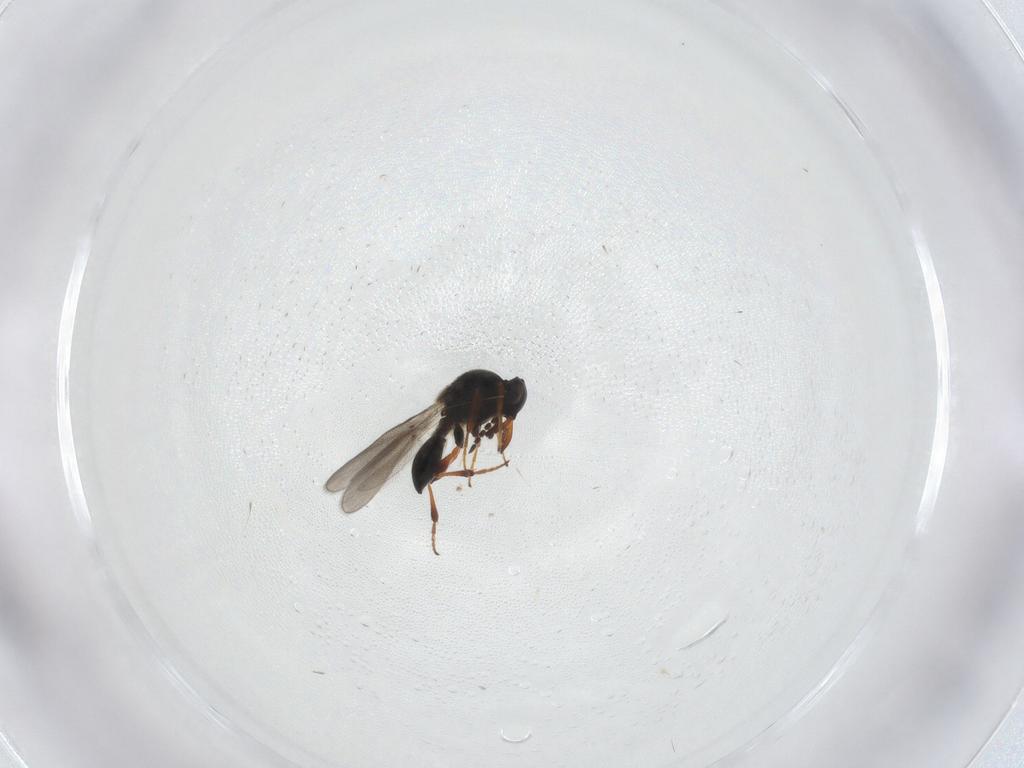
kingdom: Animalia
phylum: Arthropoda
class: Insecta
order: Hymenoptera
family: Platygastridae
